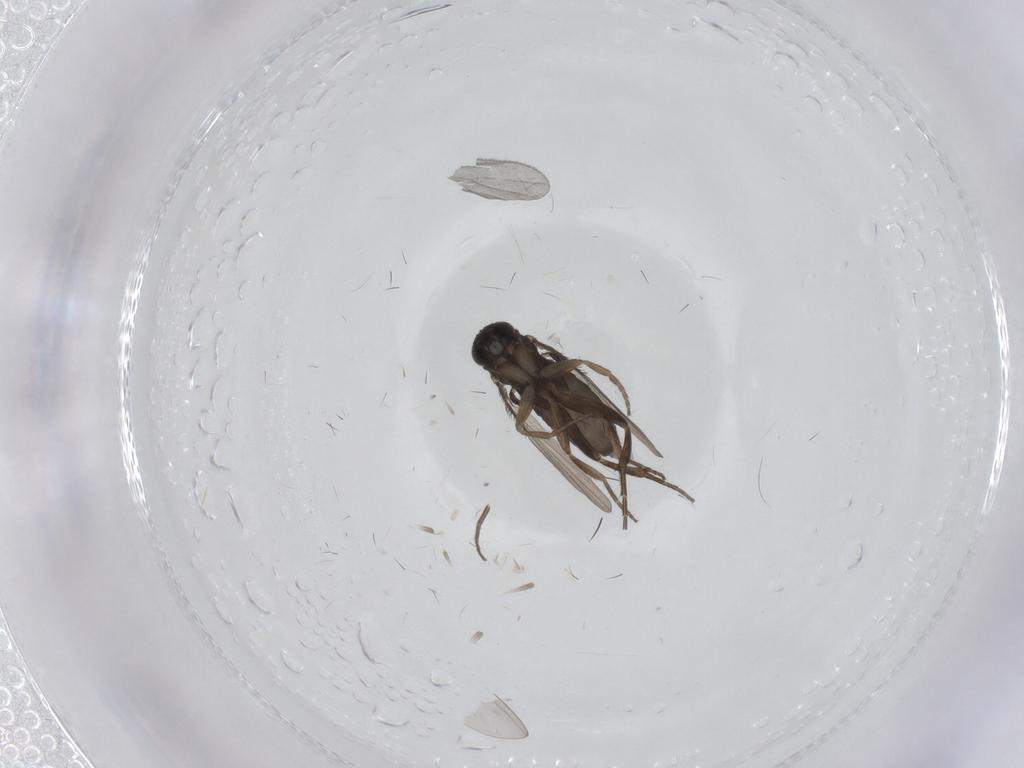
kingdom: Animalia
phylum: Arthropoda
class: Insecta
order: Diptera
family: Phoridae
